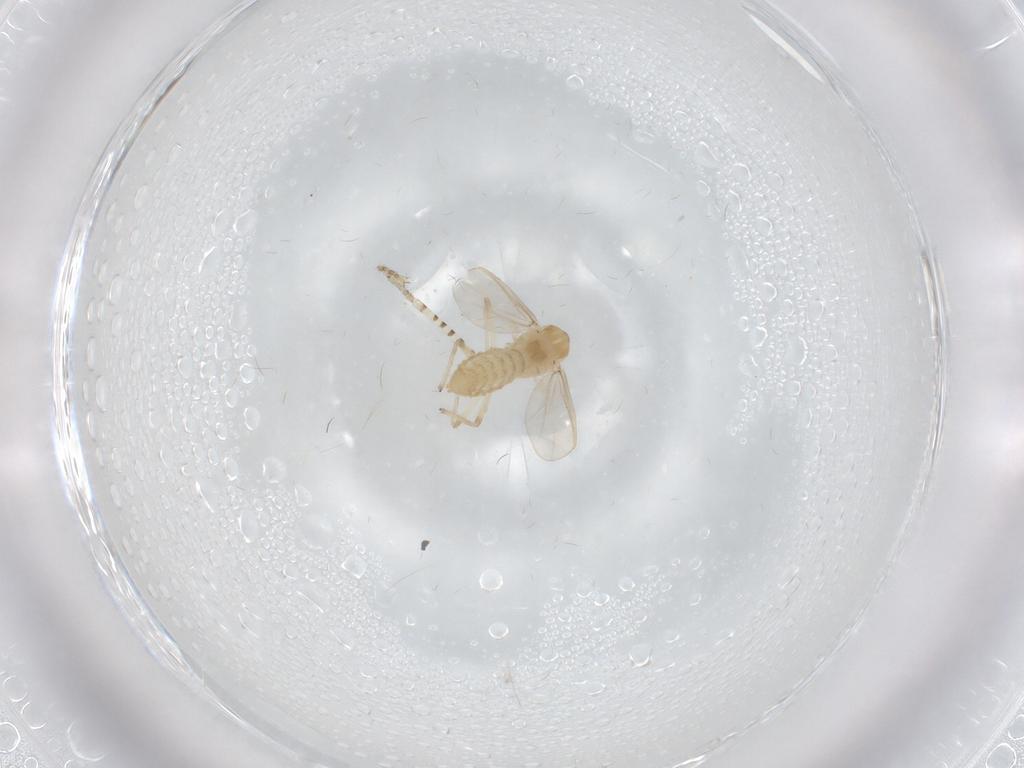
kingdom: Animalia
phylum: Arthropoda
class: Insecta
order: Diptera
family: Chaoboridae
